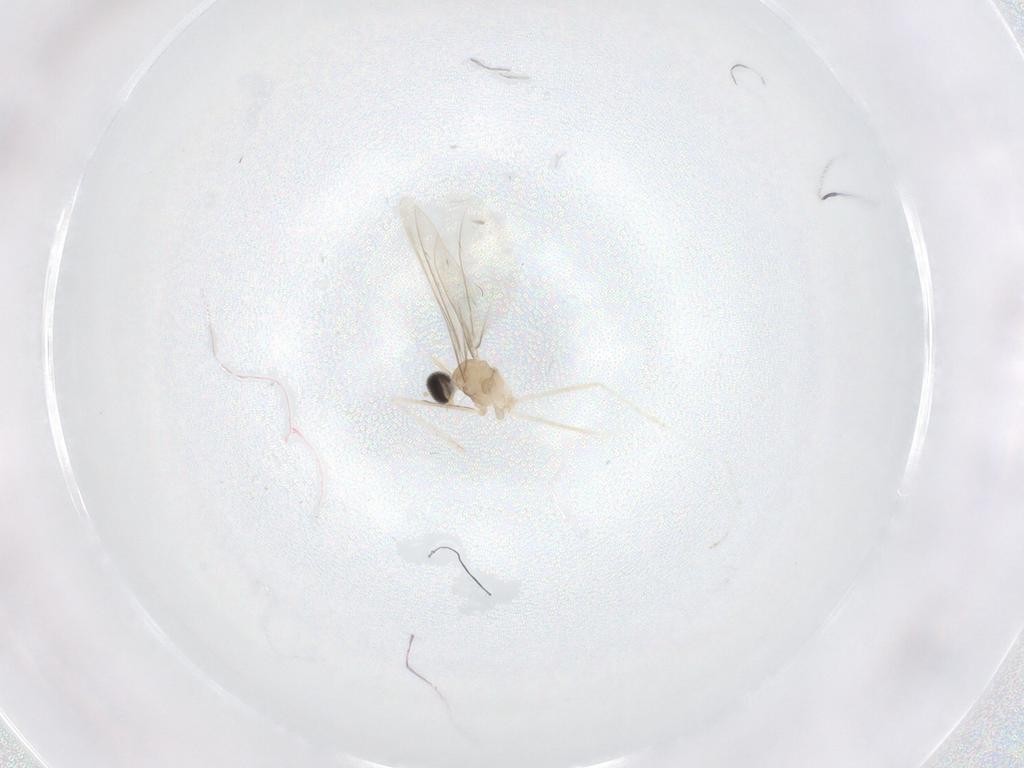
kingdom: Animalia
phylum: Arthropoda
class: Insecta
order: Diptera
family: Cecidomyiidae
